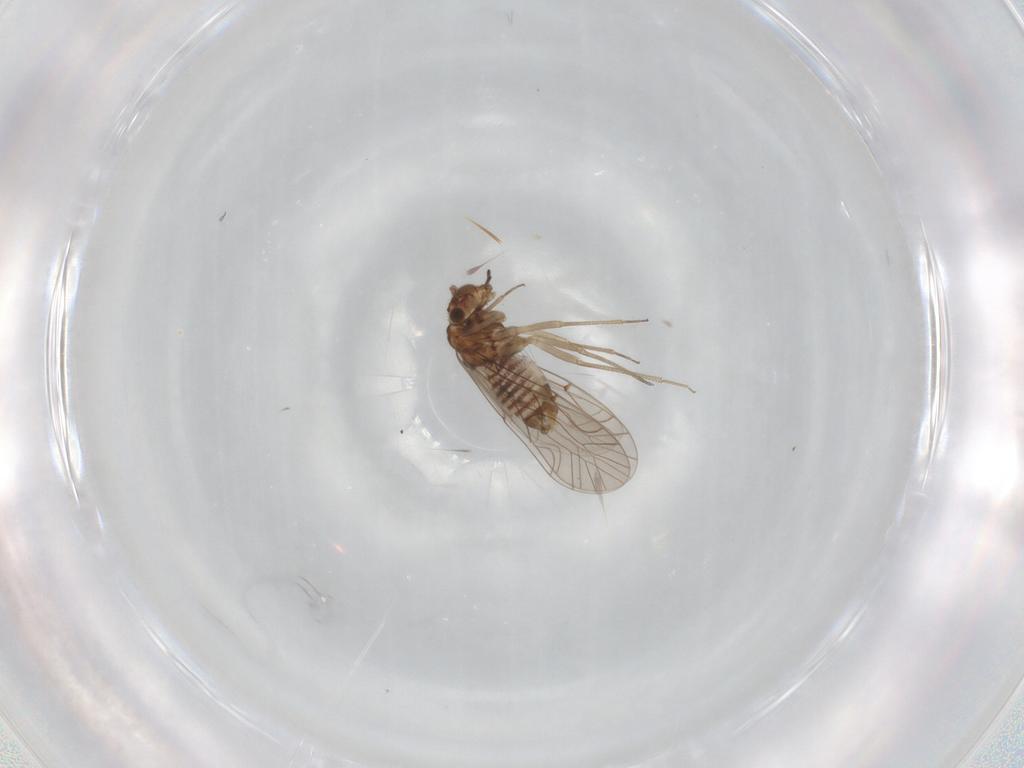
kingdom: Animalia
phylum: Arthropoda
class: Insecta
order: Psocodea
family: Lachesillidae
